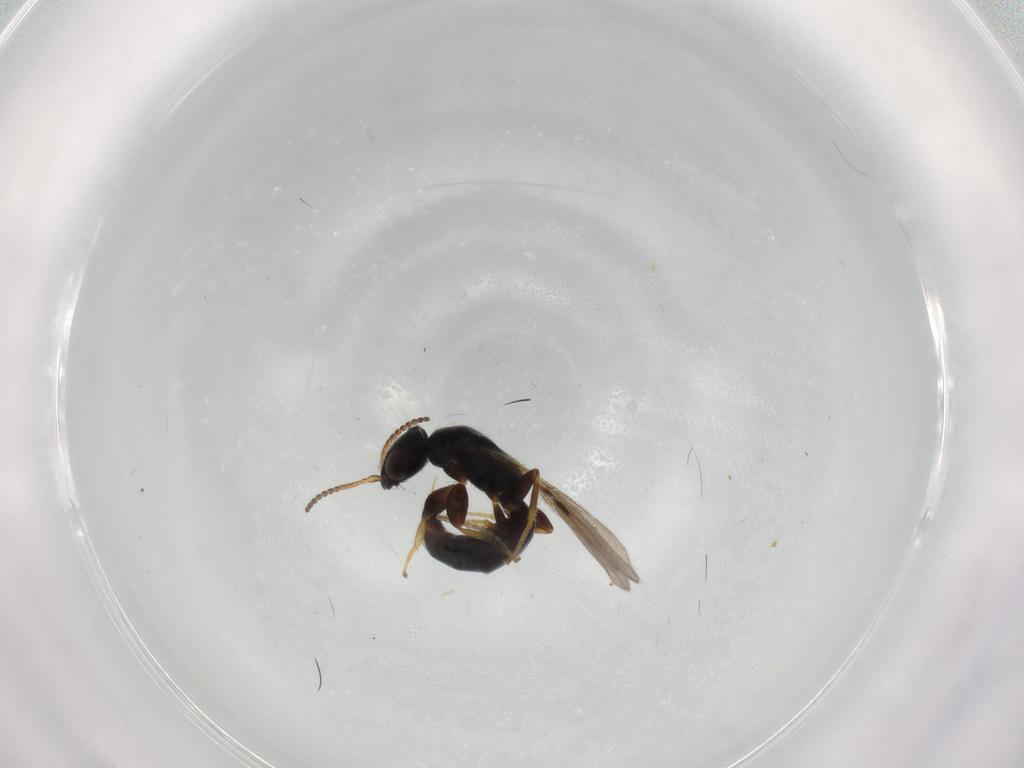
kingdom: Animalia
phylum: Arthropoda
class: Insecta
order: Hymenoptera
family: Bethylidae
